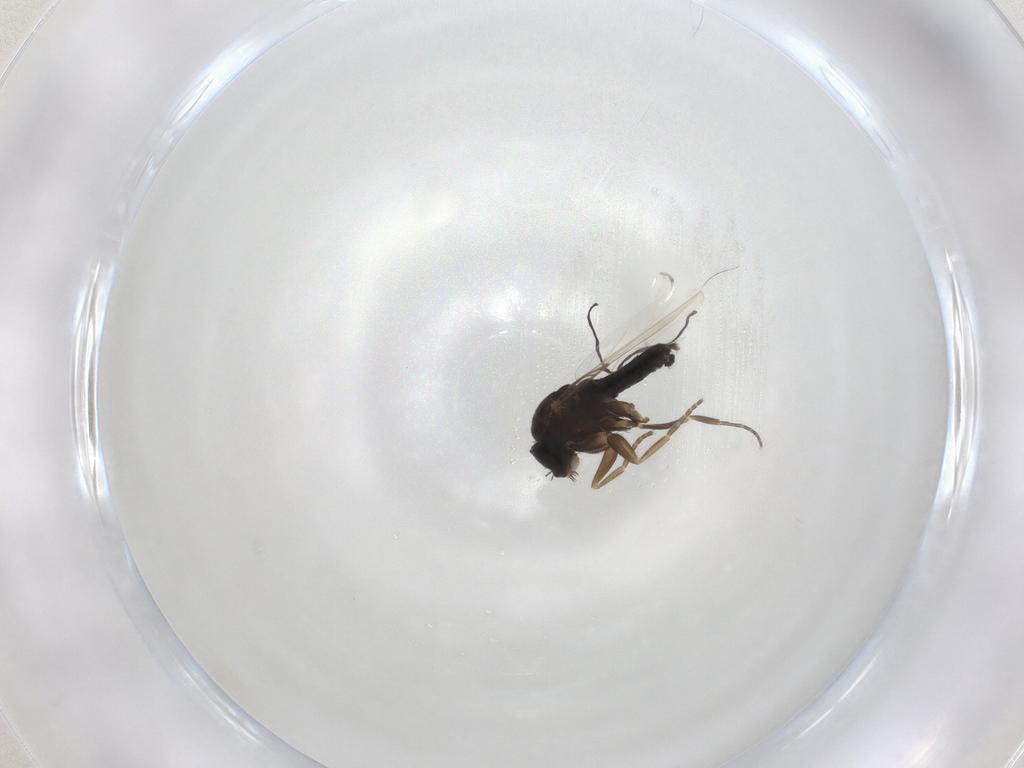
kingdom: Animalia
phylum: Arthropoda
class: Insecta
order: Diptera
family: Phoridae
